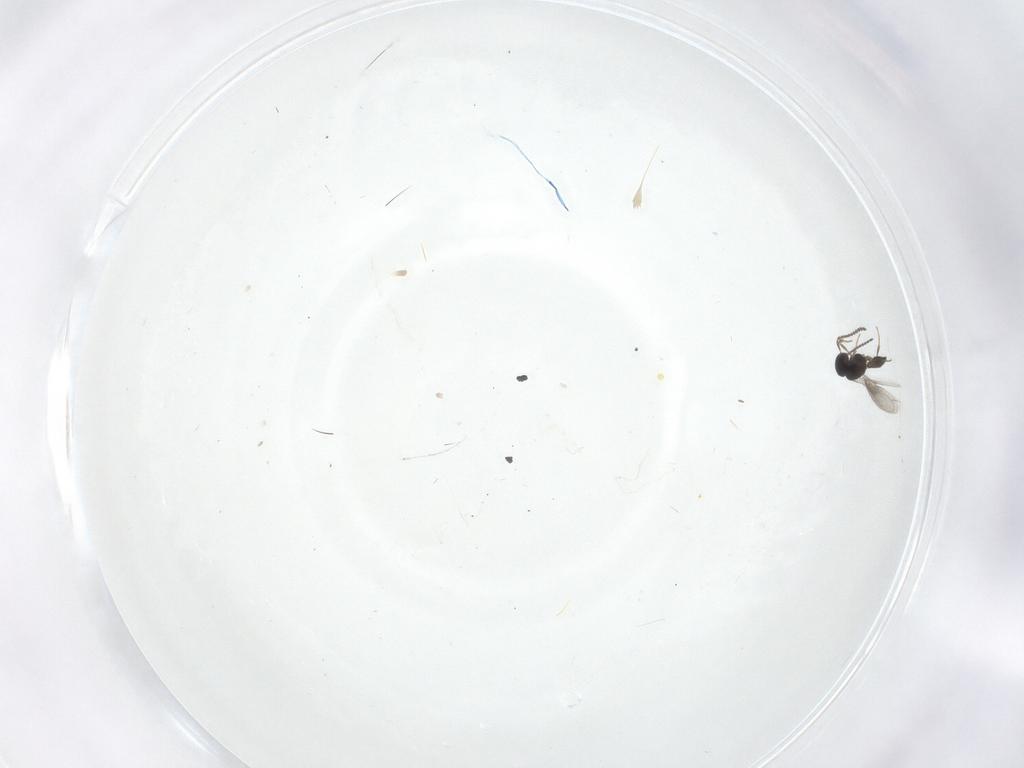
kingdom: Animalia
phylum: Arthropoda
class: Insecta
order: Hymenoptera
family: Scelionidae
